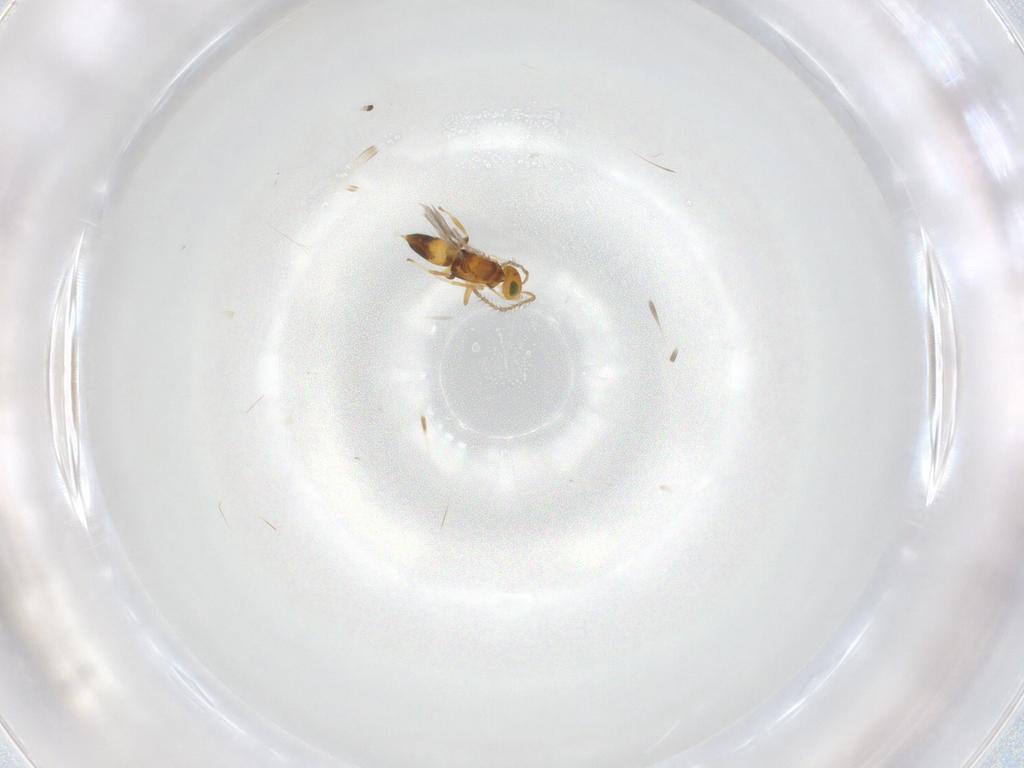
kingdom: Animalia
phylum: Arthropoda
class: Insecta
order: Hymenoptera
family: Encyrtidae
